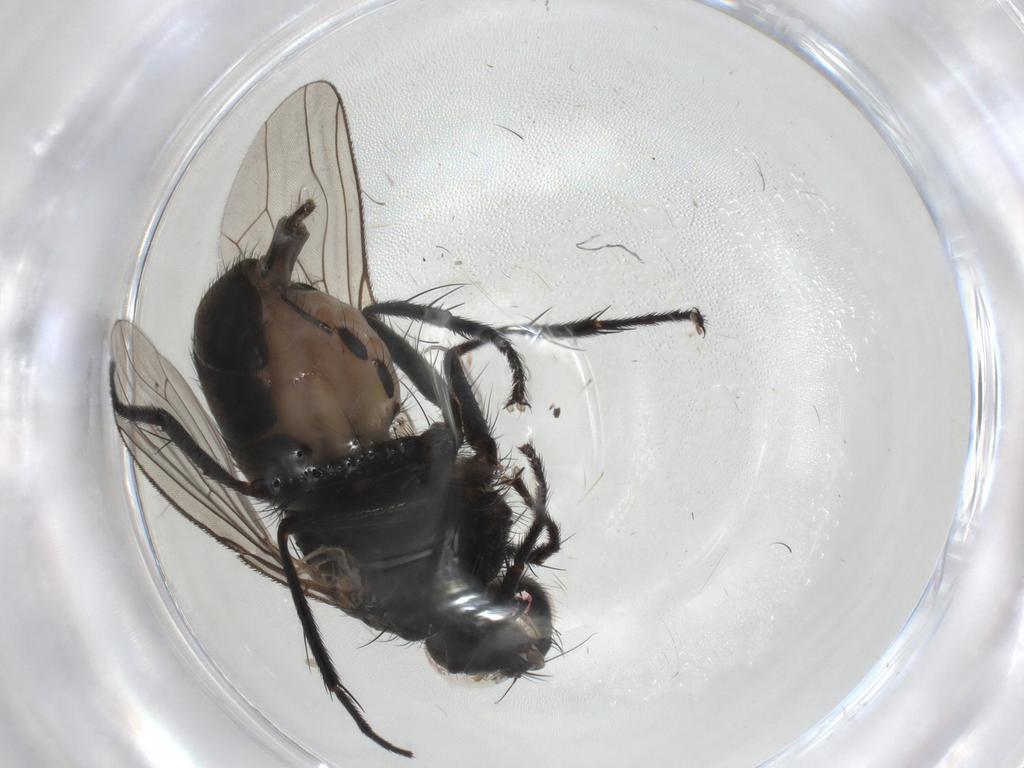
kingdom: Animalia
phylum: Arthropoda
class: Insecta
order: Diptera
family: Muscidae
